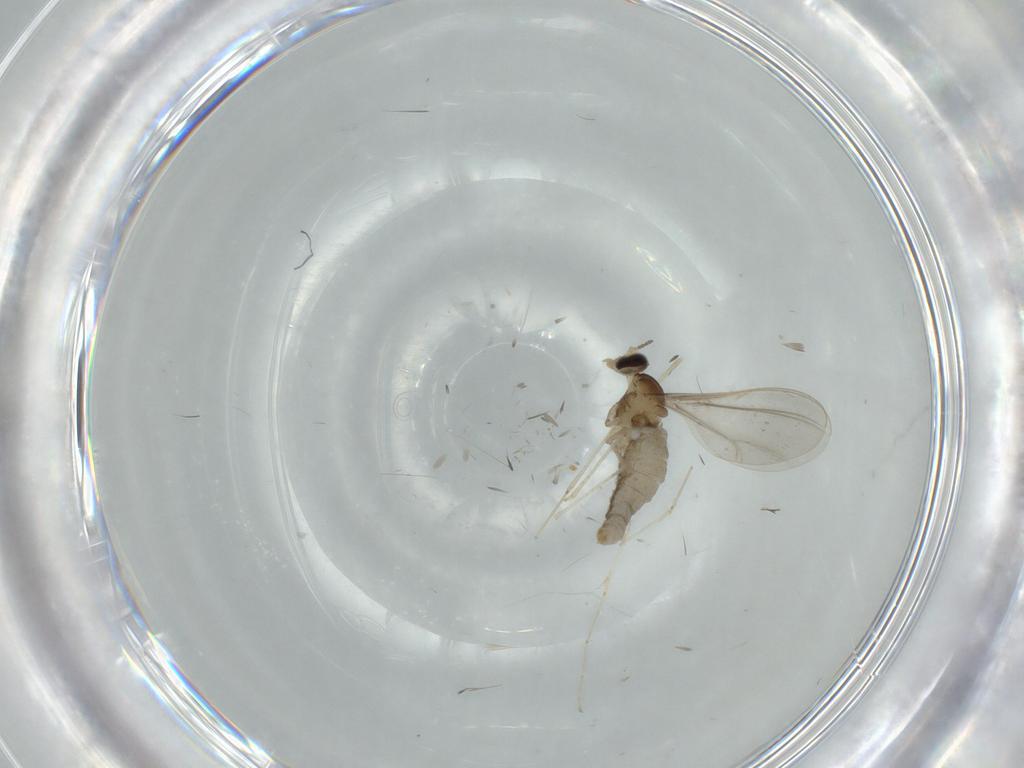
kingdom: Animalia
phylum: Arthropoda
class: Insecta
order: Diptera
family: Cecidomyiidae
